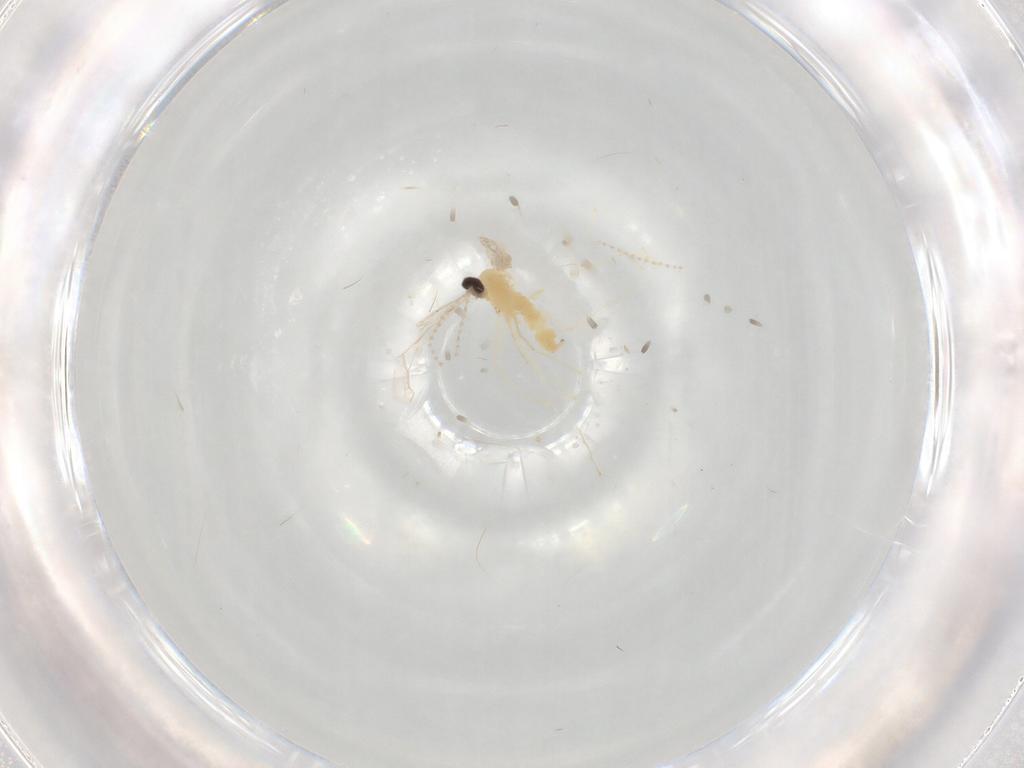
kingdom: Animalia
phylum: Arthropoda
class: Insecta
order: Diptera
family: Cecidomyiidae
